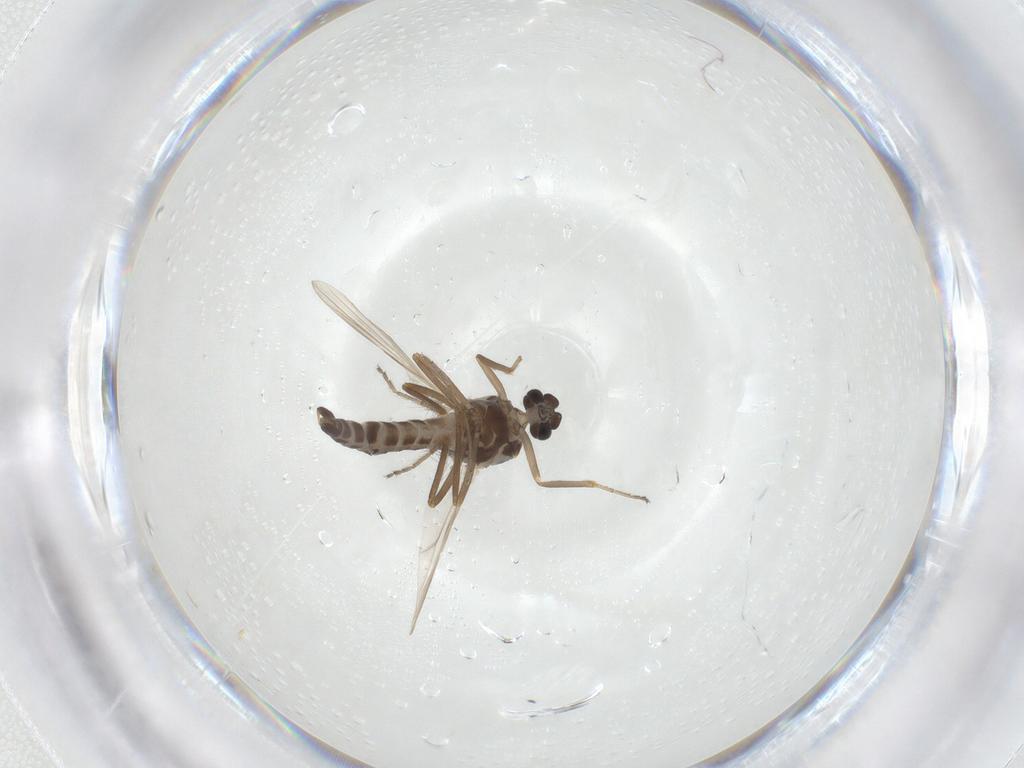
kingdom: Animalia
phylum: Arthropoda
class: Insecta
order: Diptera
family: Ceratopogonidae
